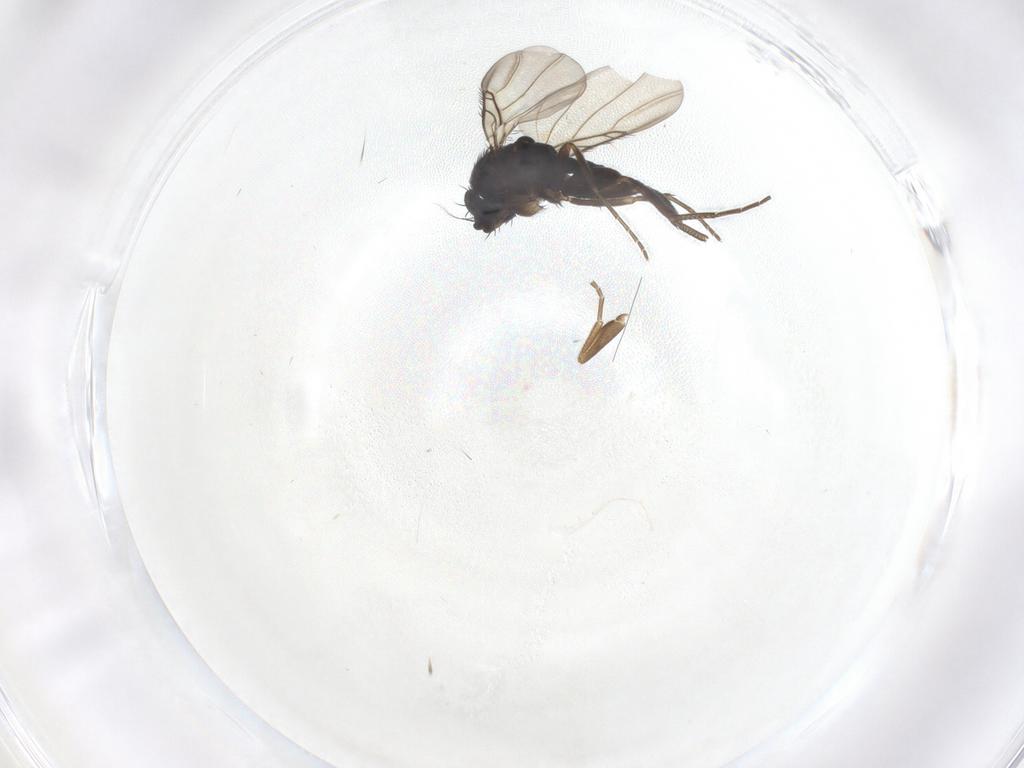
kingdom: Animalia
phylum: Arthropoda
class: Insecta
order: Diptera
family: Phoridae
